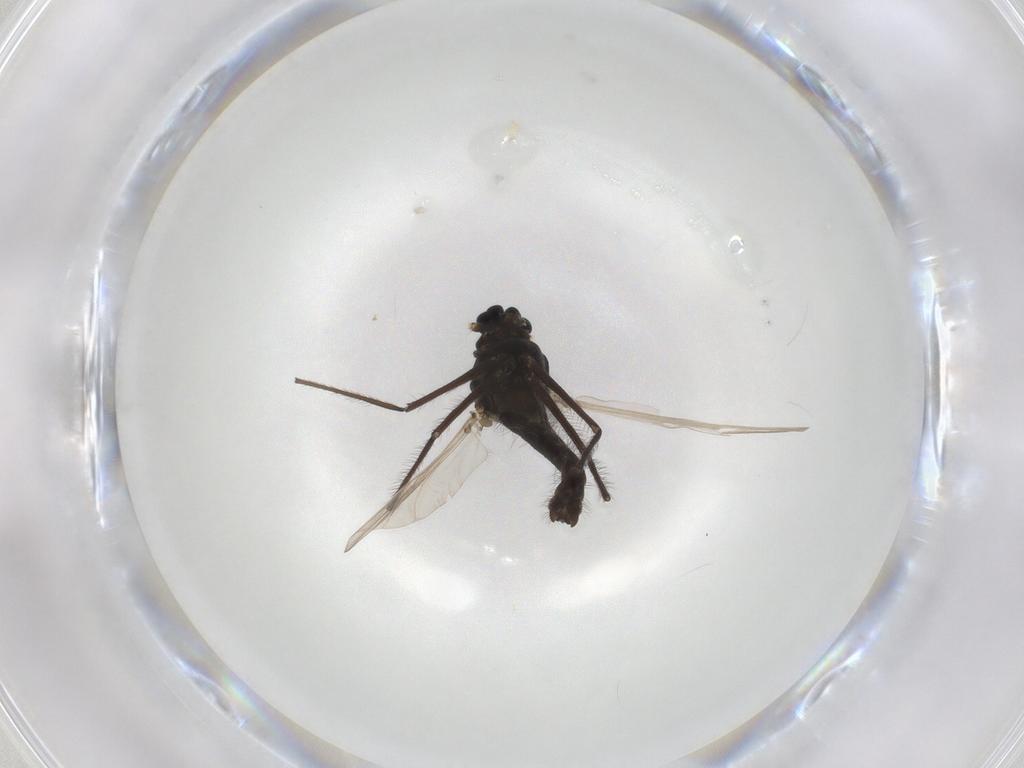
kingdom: Animalia
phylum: Arthropoda
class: Insecta
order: Diptera
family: Chironomidae
